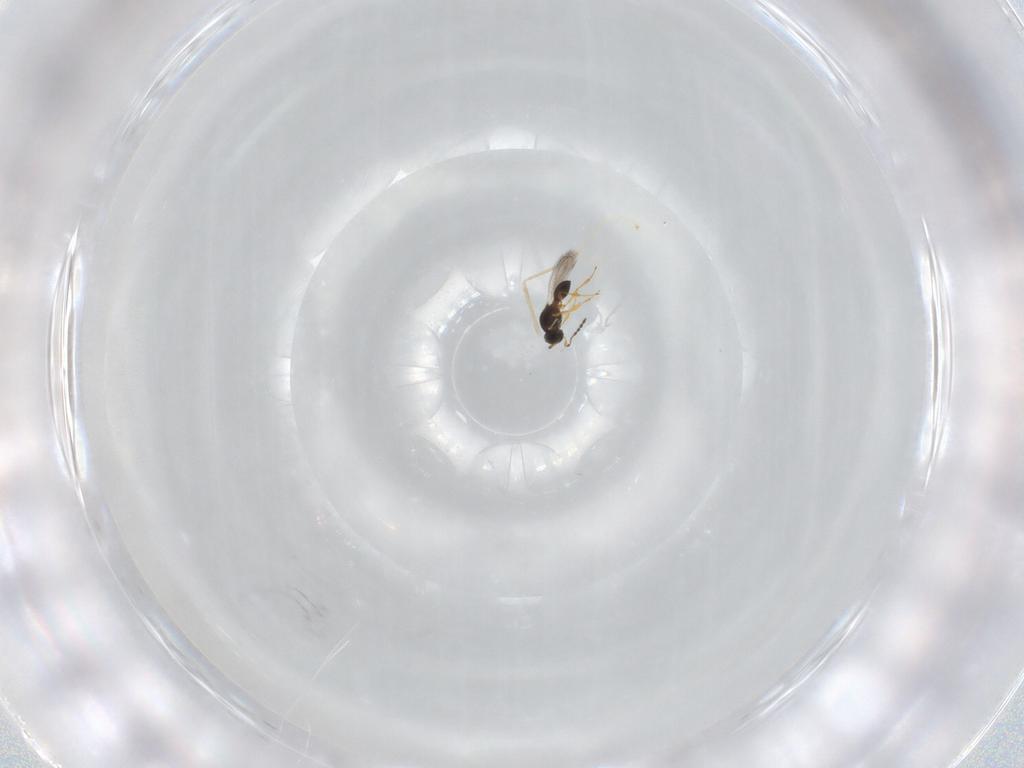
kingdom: Animalia
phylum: Arthropoda
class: Insecta
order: Hymenoptera
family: Platygastridae
